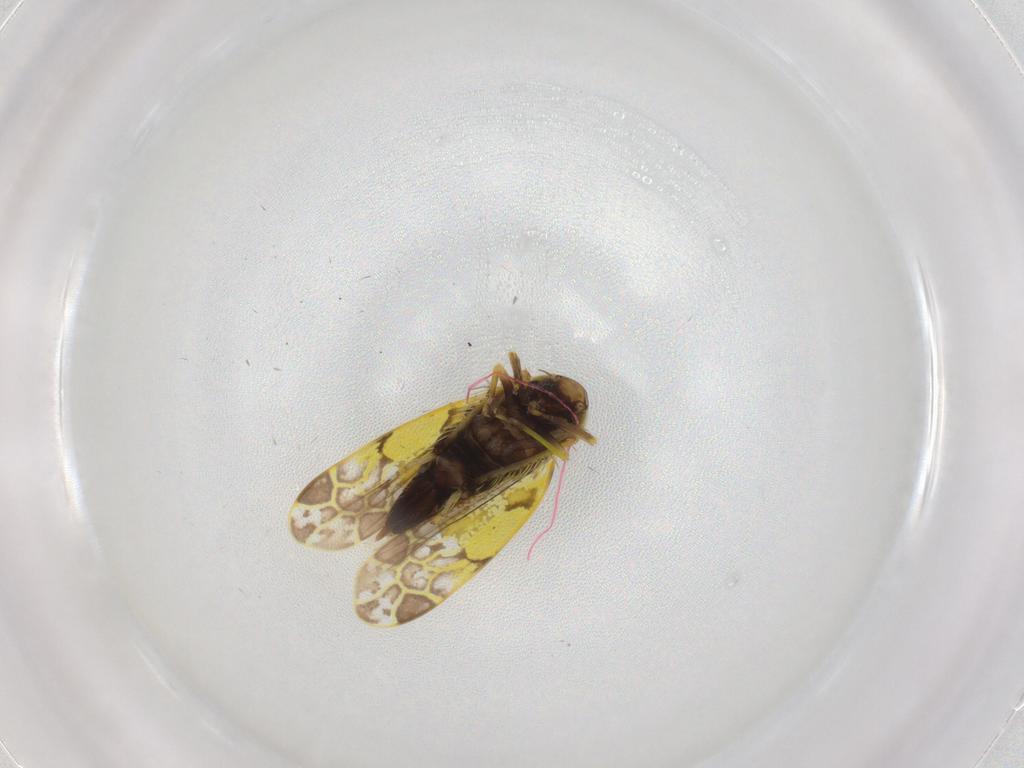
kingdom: Animalia
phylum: Arthropoda
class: Insecta
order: Hemiptera
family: Cicadellidae
